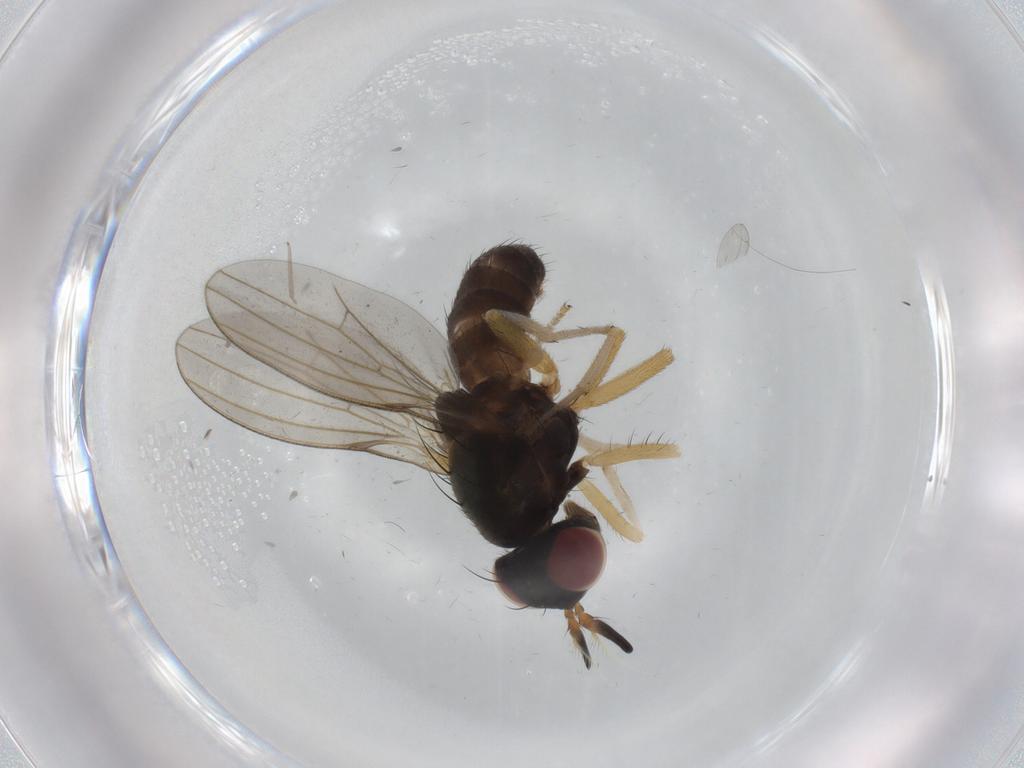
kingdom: Animalia
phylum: Arthropoda
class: Insecta
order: Diptera
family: Lauxaniidae
